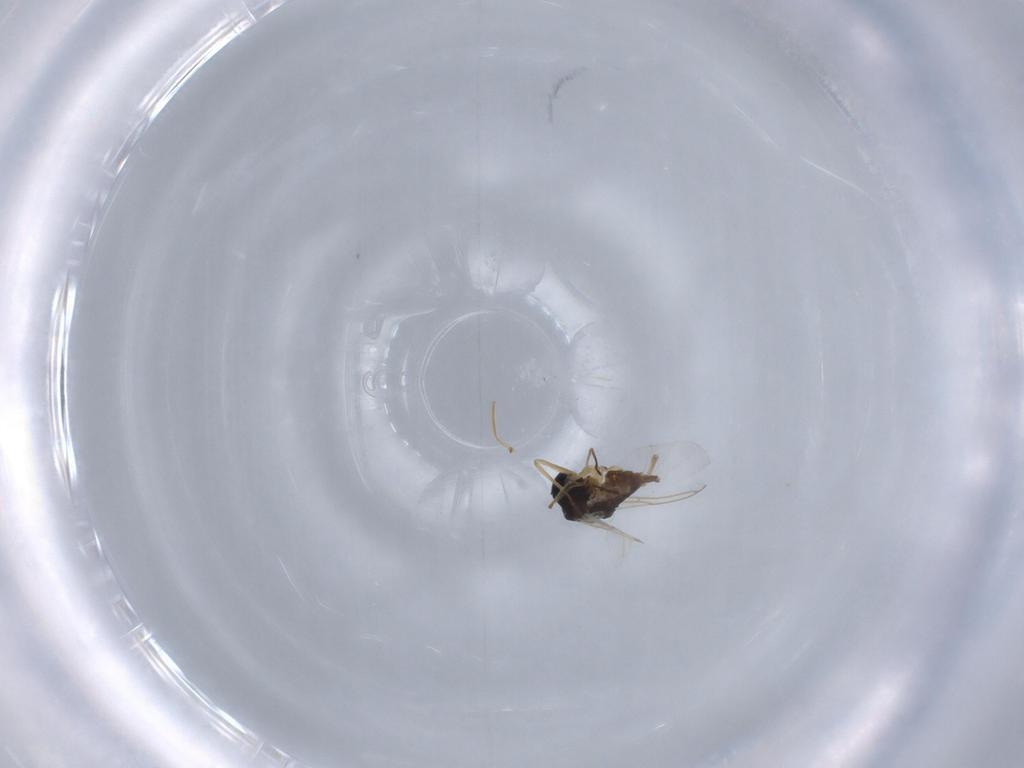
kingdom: Animalia
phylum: Arthropoda
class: Insecta
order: Diptera
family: Sciaridae
